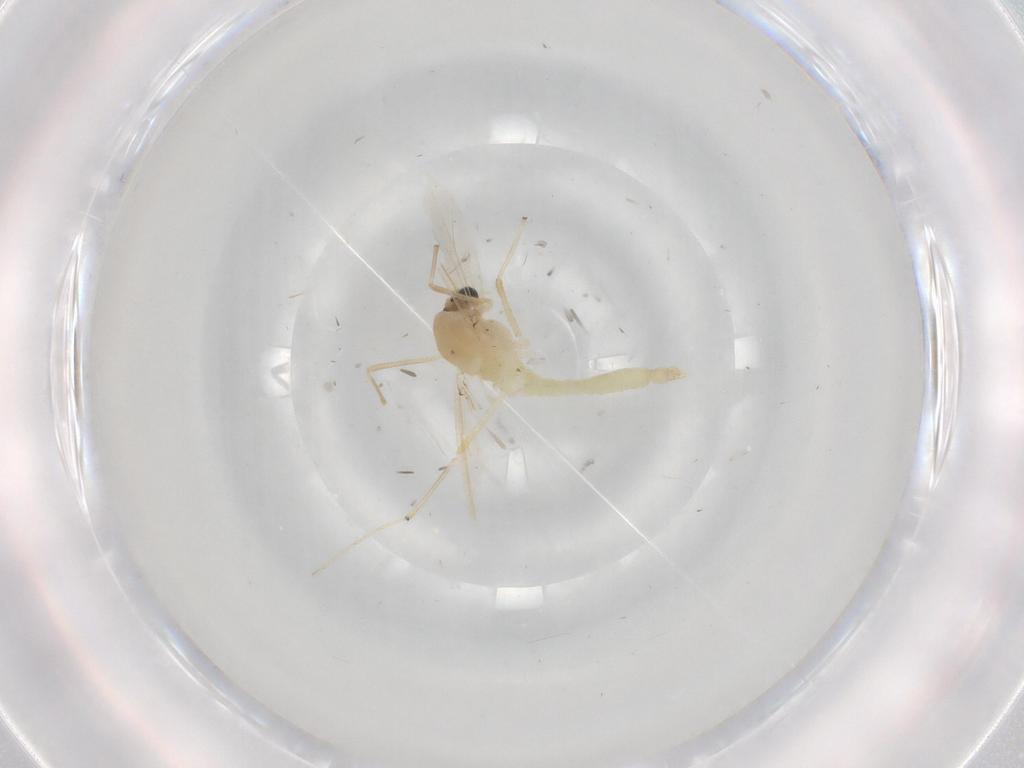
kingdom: Animalia
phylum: Arthropoda
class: Insecta
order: Diptera
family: Chironomidae
